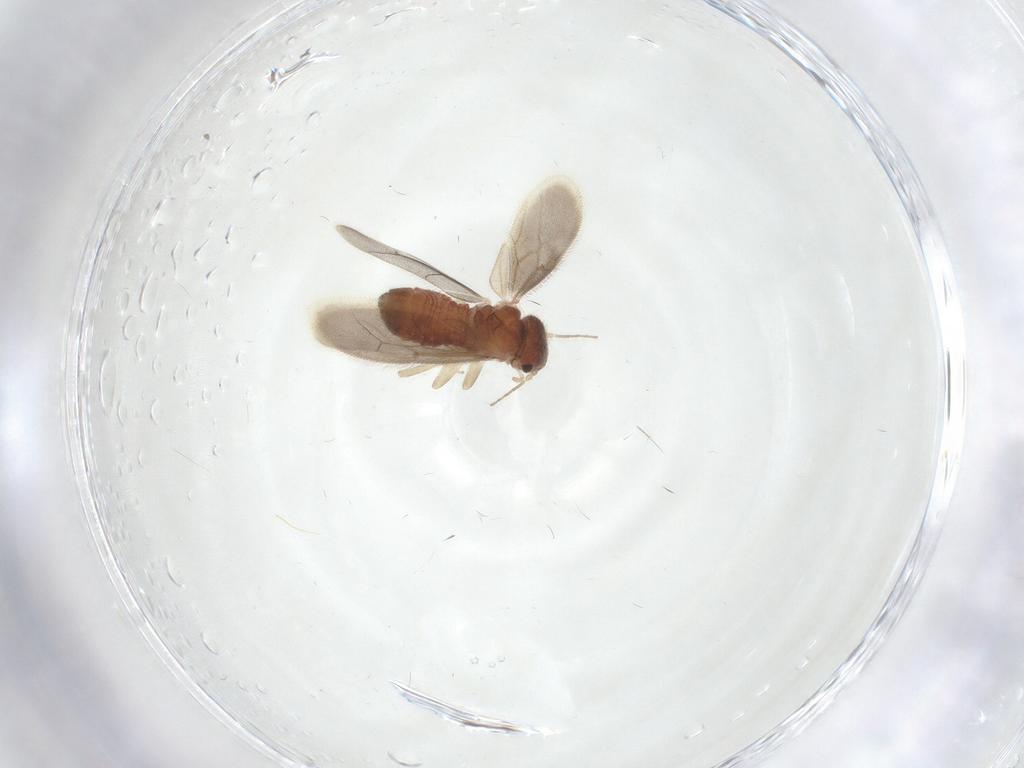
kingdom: Animalia
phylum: Arthropoda
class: Insecta
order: Psocodea
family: Archipsocidae
